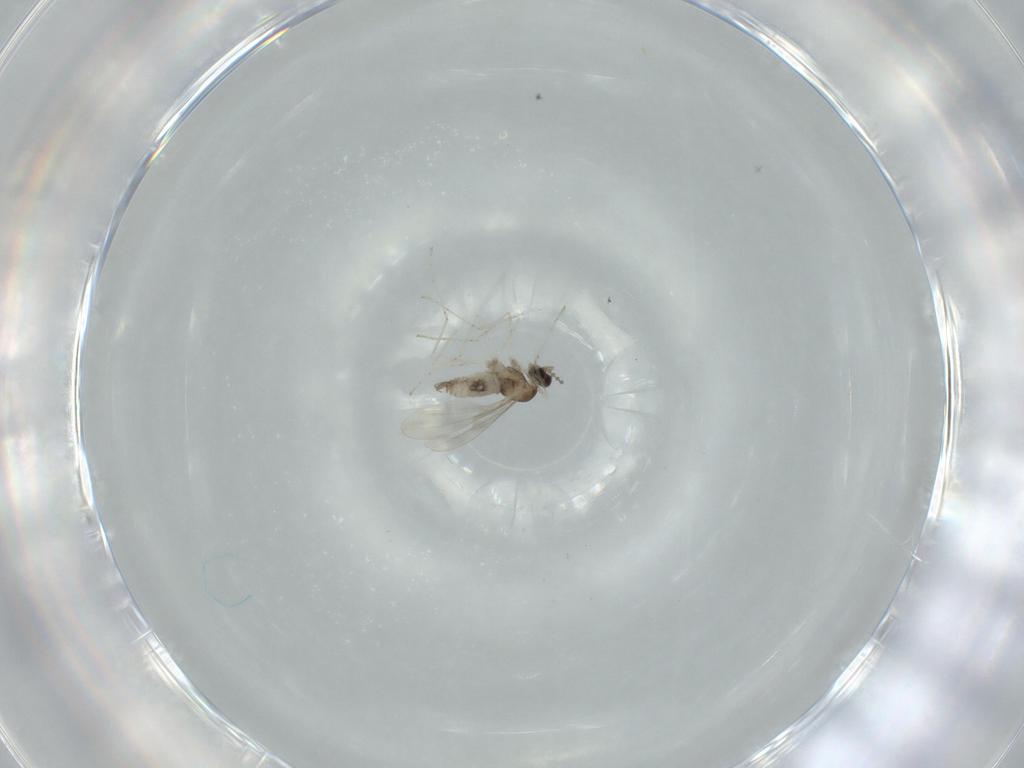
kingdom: Animalia
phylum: Arthropoda
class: Insecta
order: Diptera
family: Cecidomyiidae
